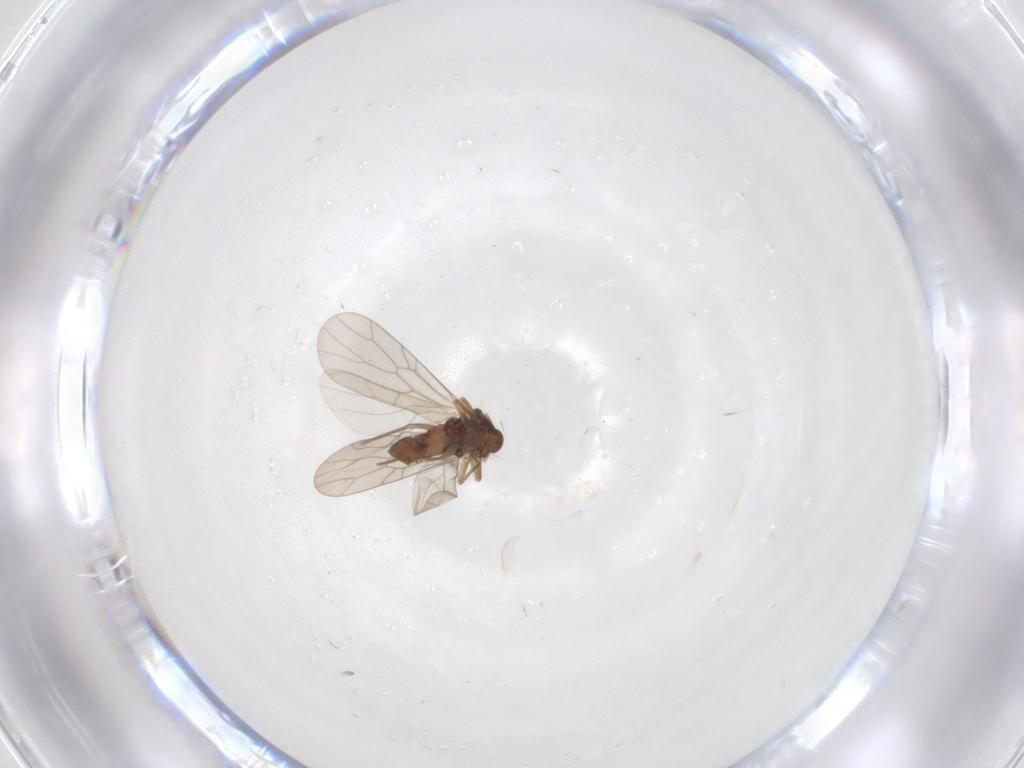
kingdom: Animalia
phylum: Arthropoda
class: Insecta
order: Psocodea
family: Lepidopsocidae
